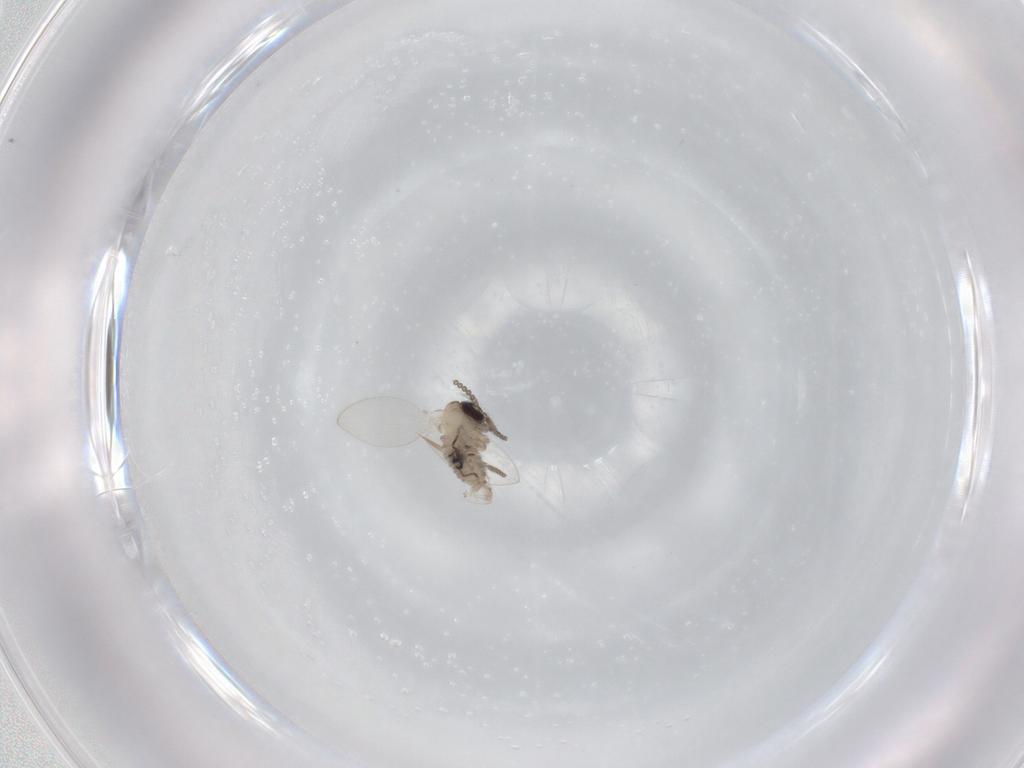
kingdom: Animalia
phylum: Arthropoda
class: Insecta
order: Diptera
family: Psychodidae
